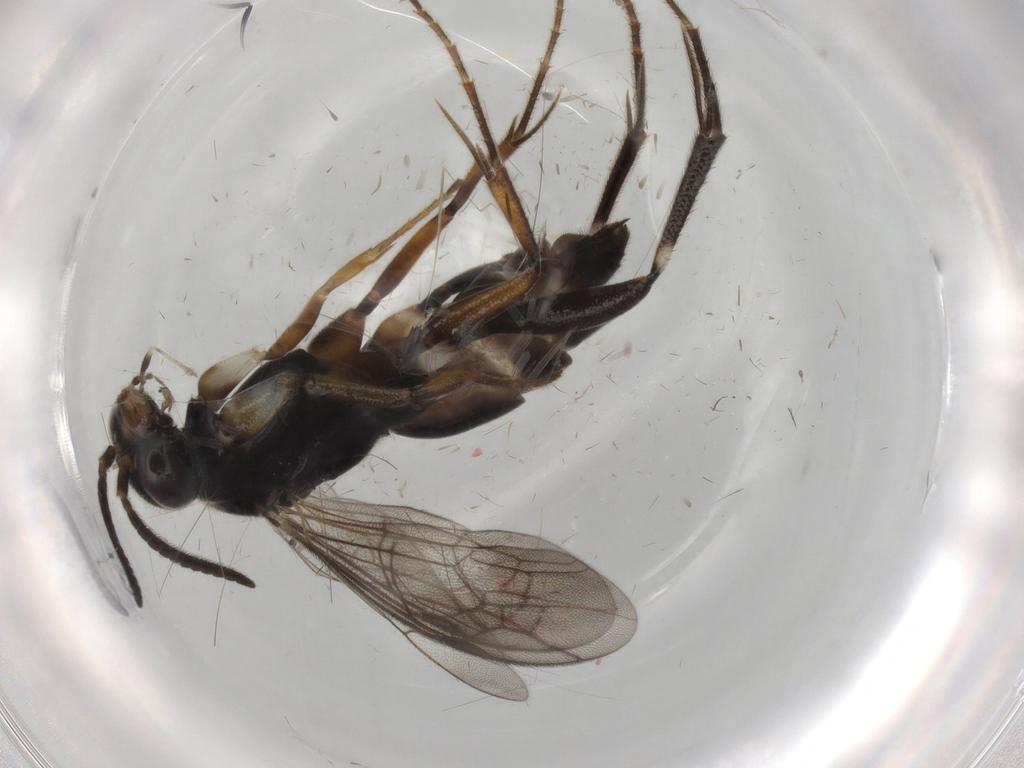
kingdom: Animalia
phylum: Arthropoda
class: Insecta
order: Hymenoptera
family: Pompilidae
